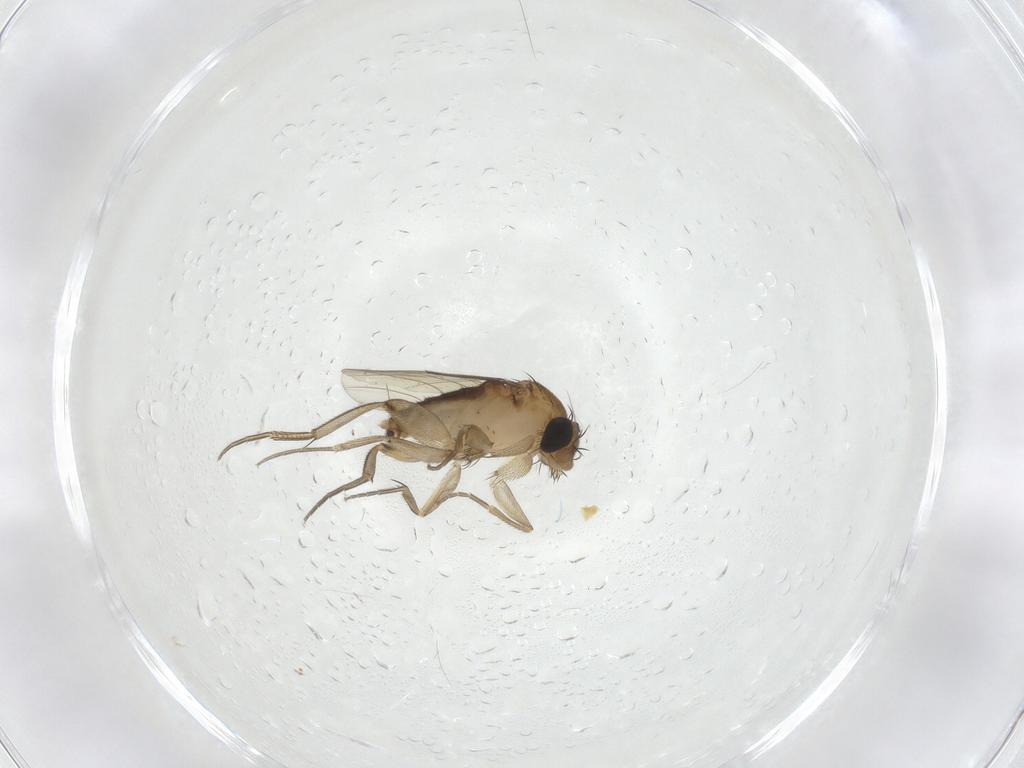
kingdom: Animalia
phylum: Arthropoda
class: Insecta
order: Diptera
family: Phoridae
